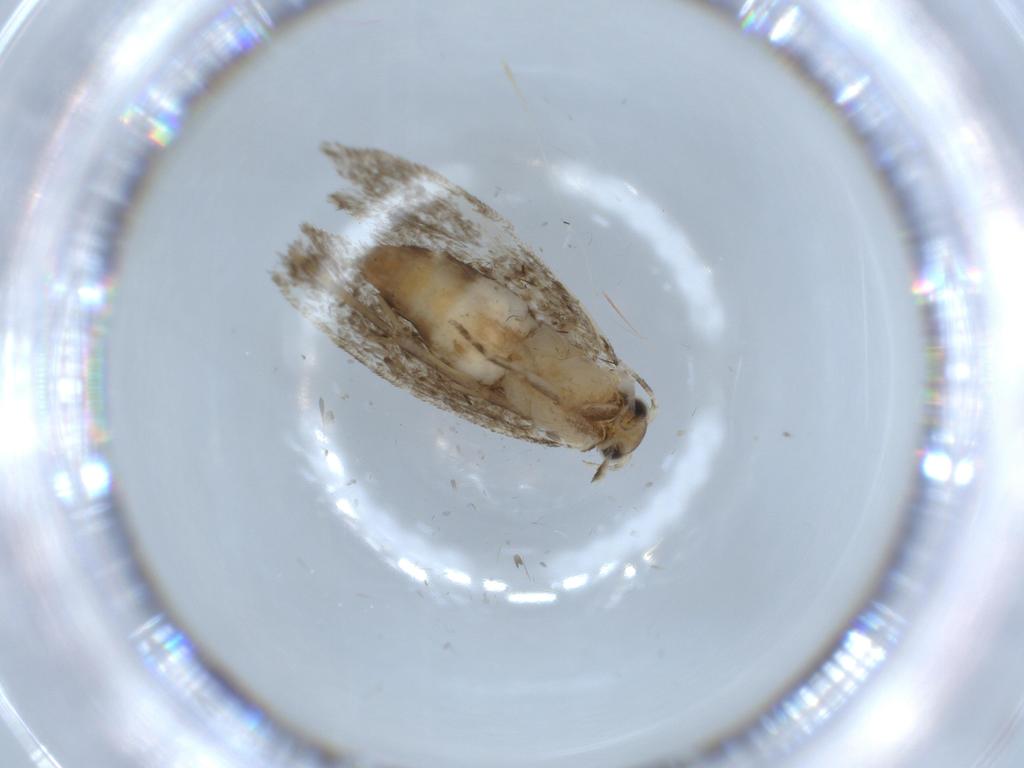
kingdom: Animalia
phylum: Arthropoda
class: Insecta
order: Lepidoptera
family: Tineidae
